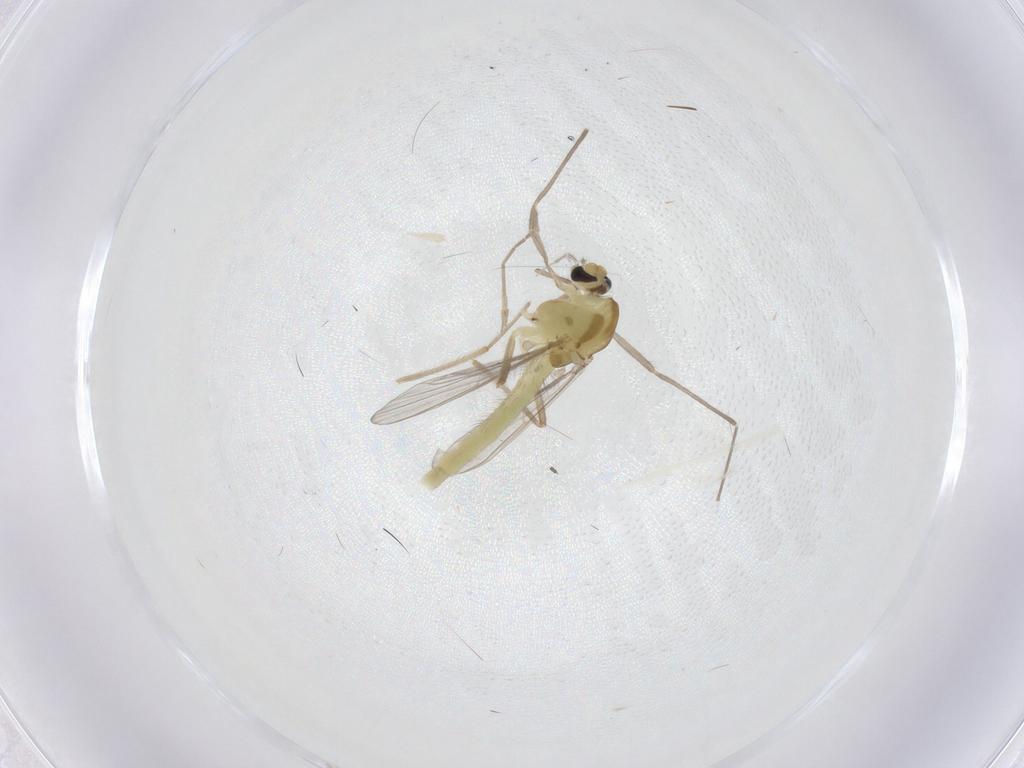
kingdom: Animalia
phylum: Arthropoda
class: Insecta
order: Diptera
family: Chironomidae
